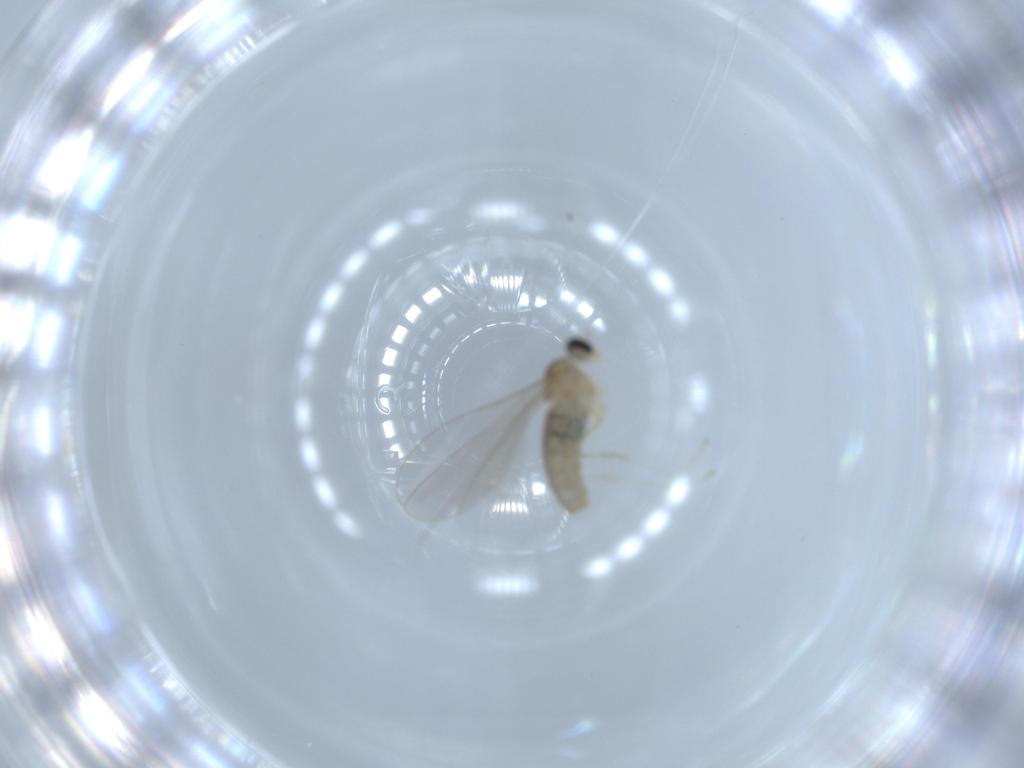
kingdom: Animalia
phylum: Arthropoda
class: Insecta
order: Diptera
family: Cecidomyiidae
